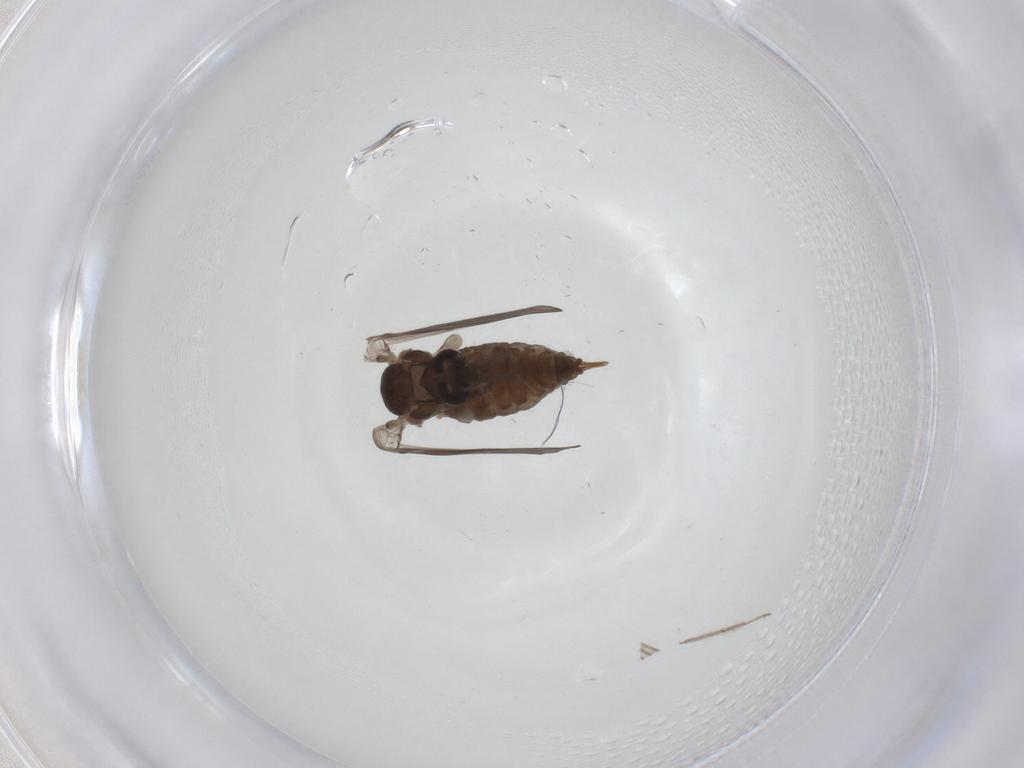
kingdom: Animalia
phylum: Arthropoda
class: Insecta
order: Diptera
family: Psychodidae
